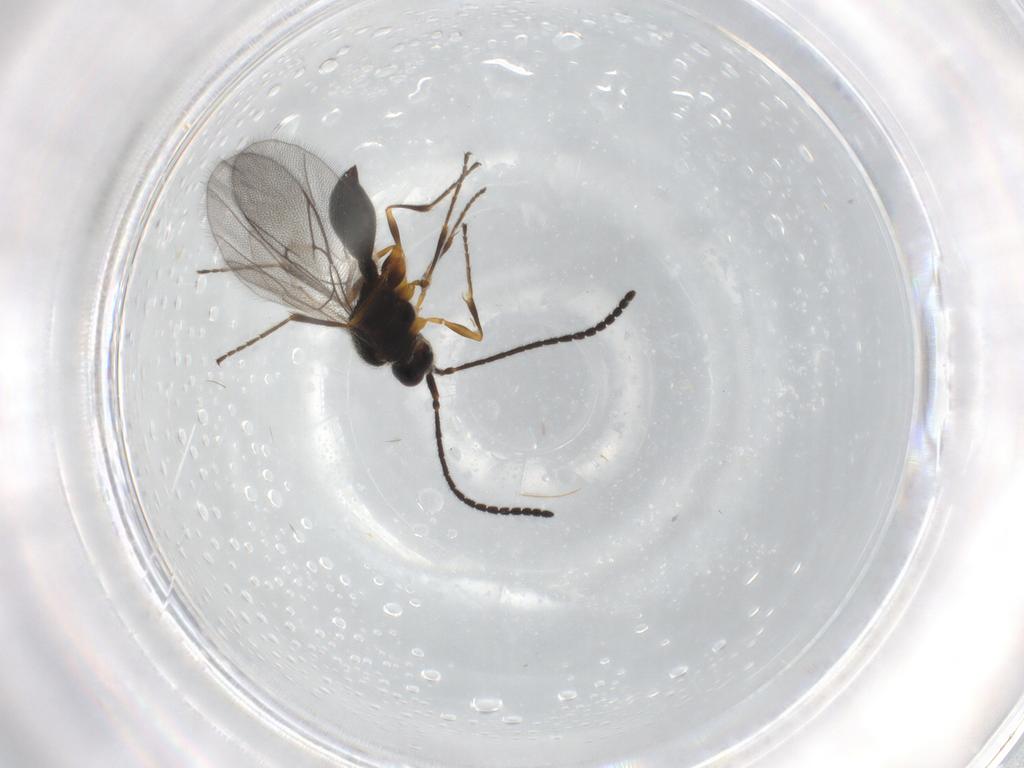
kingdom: Animalia
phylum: Arthropoda
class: Insecta
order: Hymenoptera
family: Diapriidae
